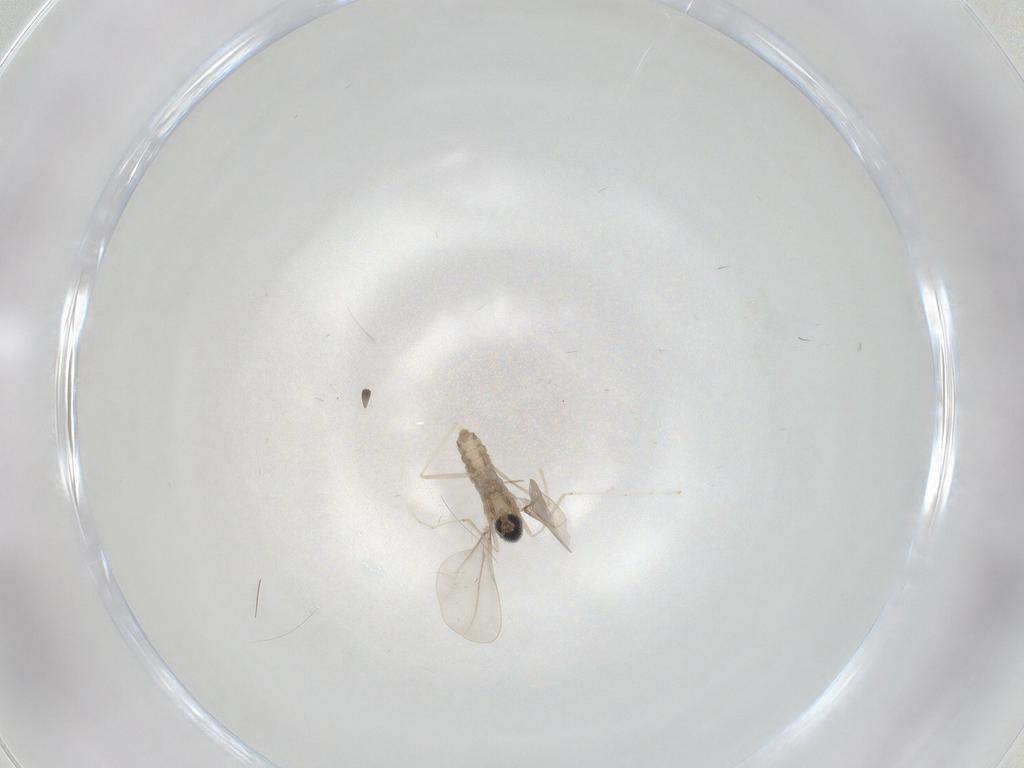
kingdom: Animalia
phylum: Arthropoda
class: Insecta
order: Diptera
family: Cecidomyiidae
